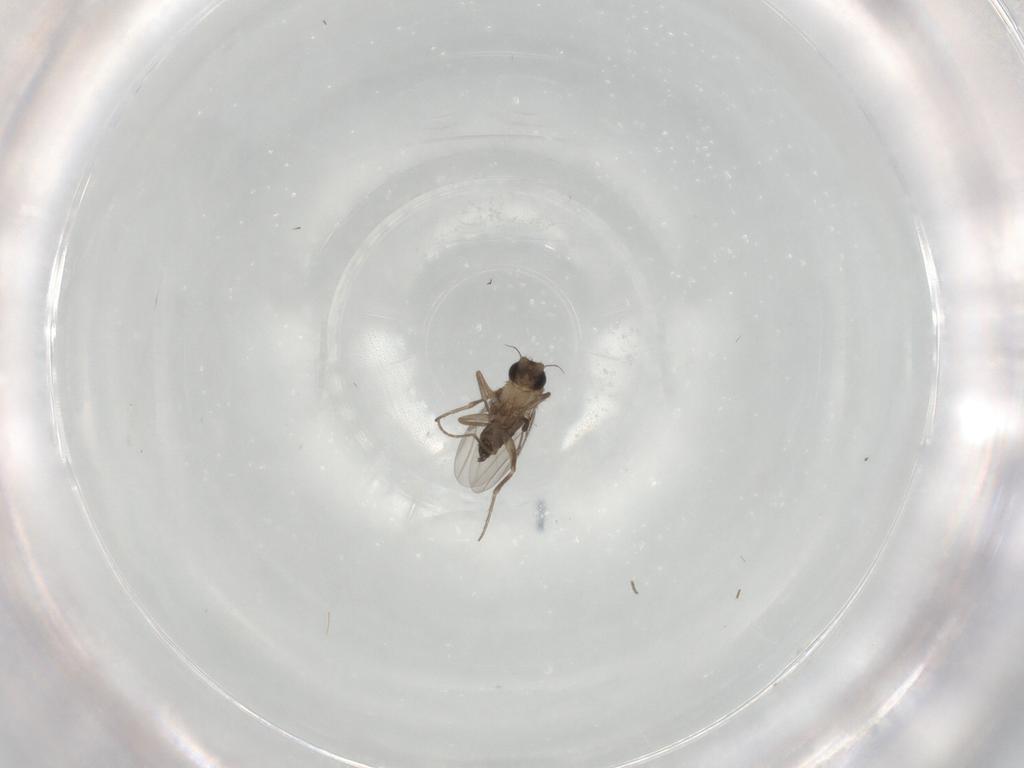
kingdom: Animalia
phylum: Arthropoda
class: Insecta
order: Diptera
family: Phoridae
